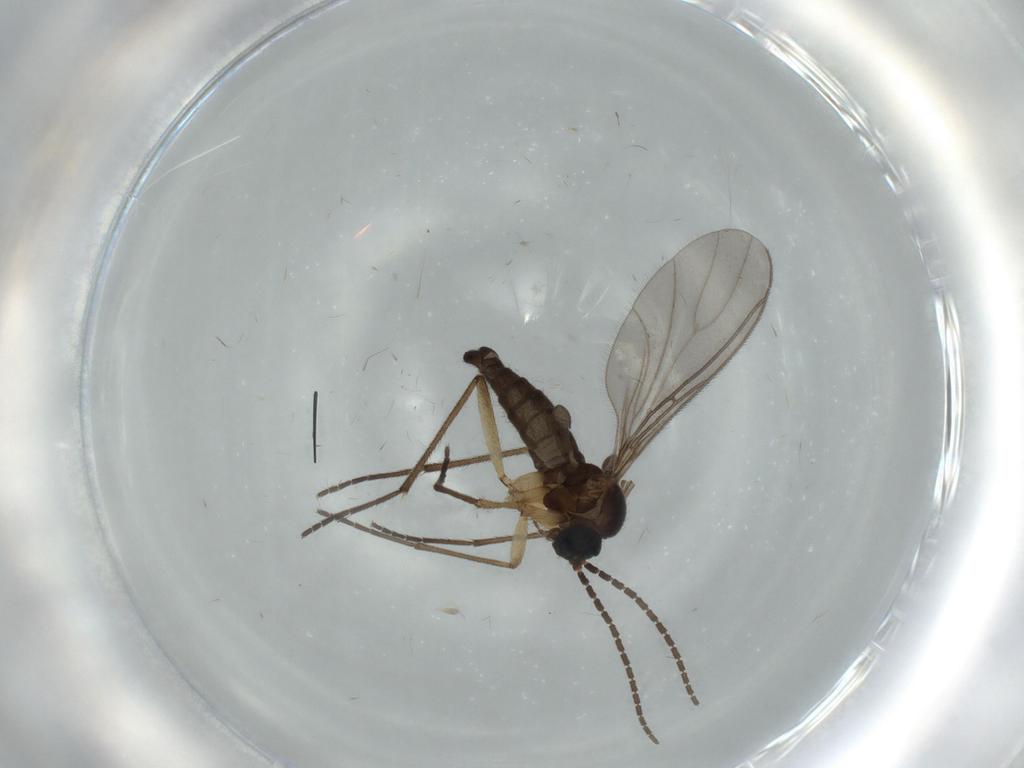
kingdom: Animalia
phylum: Arthropoda
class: Insecta
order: Diptera
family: Sciaridae
